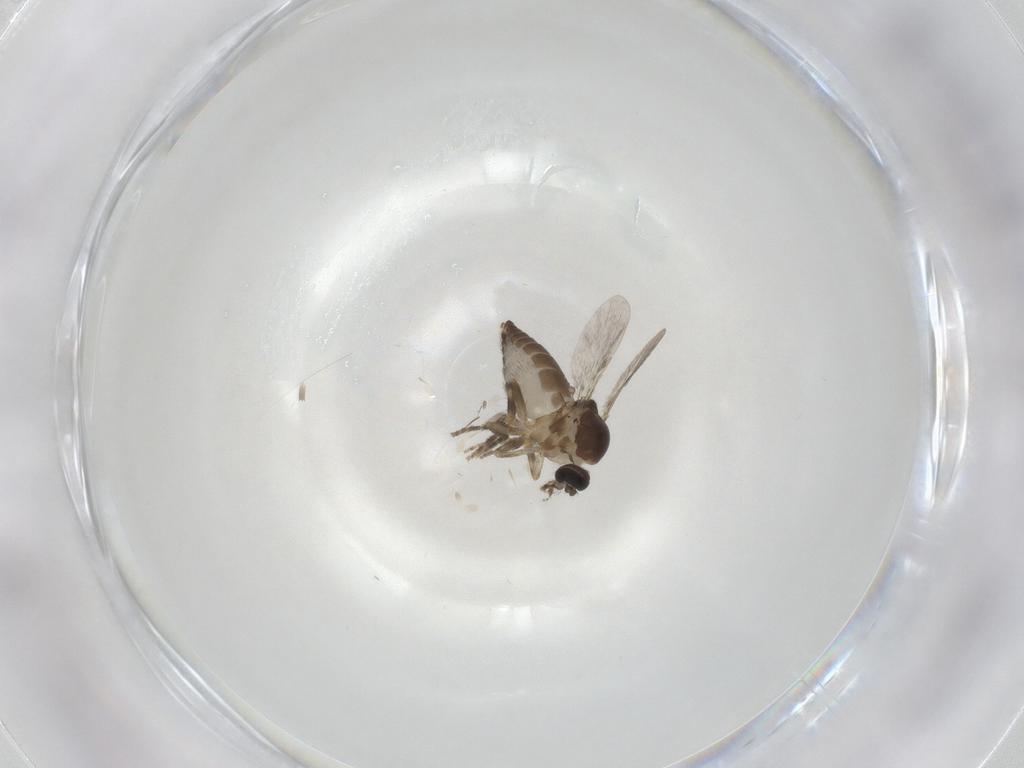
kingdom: Animalia
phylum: Arthropoda
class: Insecta
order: Diptera
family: Ceratopogonidae
